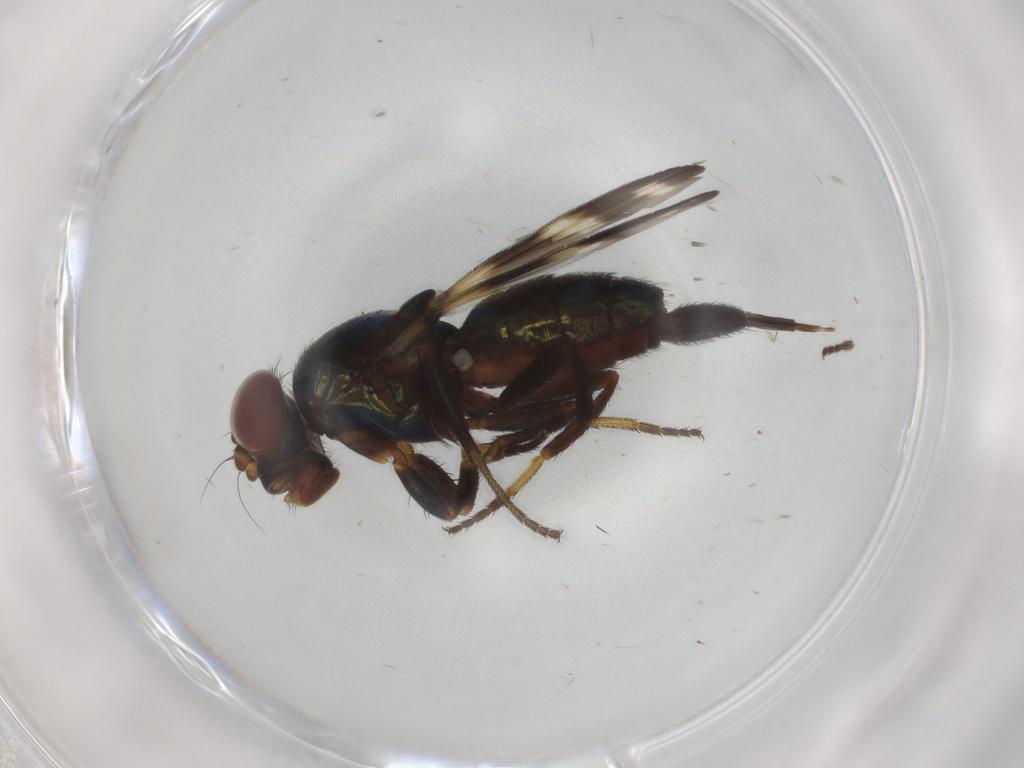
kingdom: Animalia
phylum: Arthropoda
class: Insecta
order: Diptera
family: Ulidiidae
